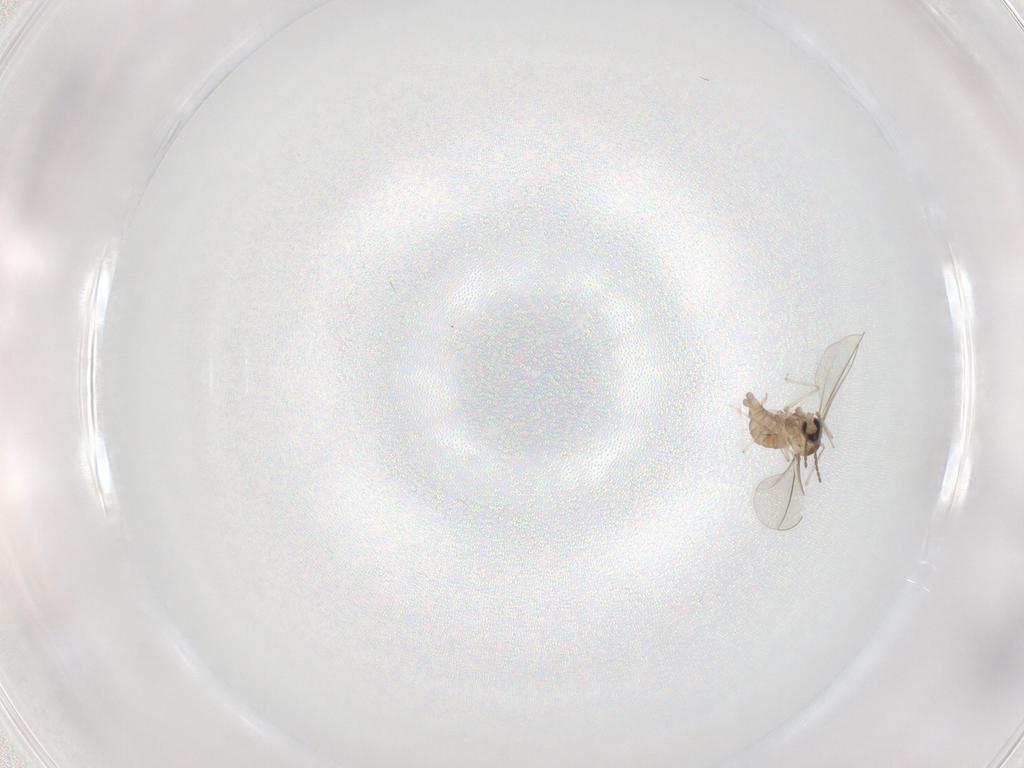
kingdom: Animalia
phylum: Arthropoda
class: Insecta
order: Diptera
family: Cecidomyiidae
